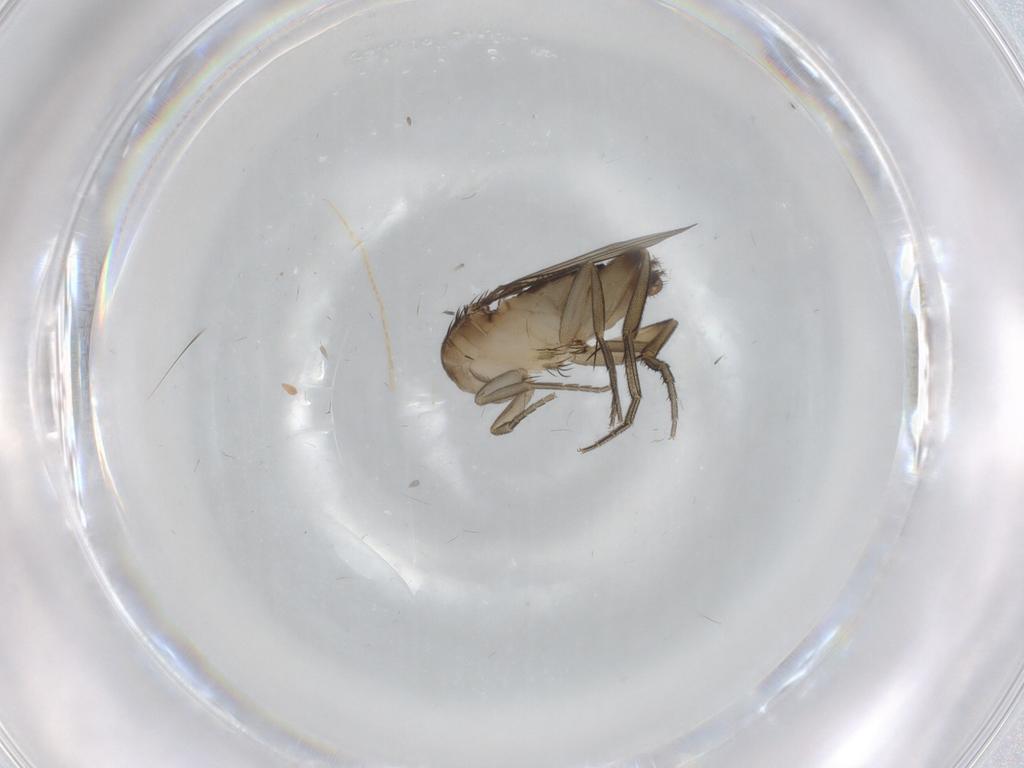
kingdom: Animalia
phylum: Arthropoda
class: Insecta
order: Diptera
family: Phoridae
